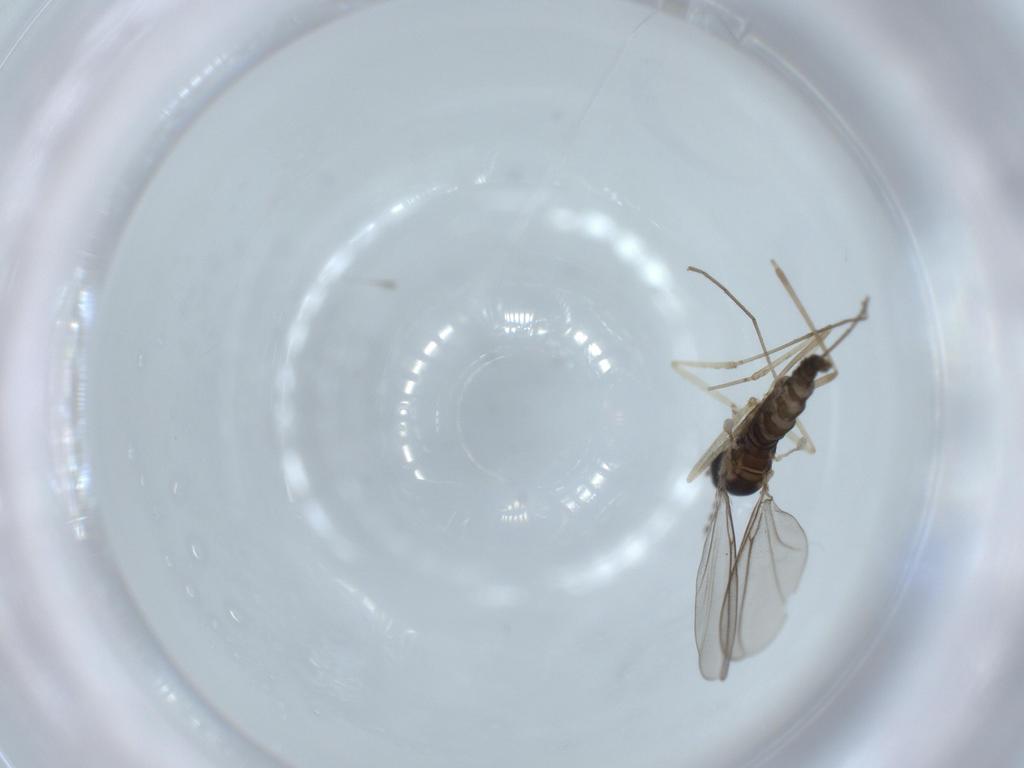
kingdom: Animalia
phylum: Arthropoda
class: Insecta
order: Diptera
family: Cecidomyiidae
